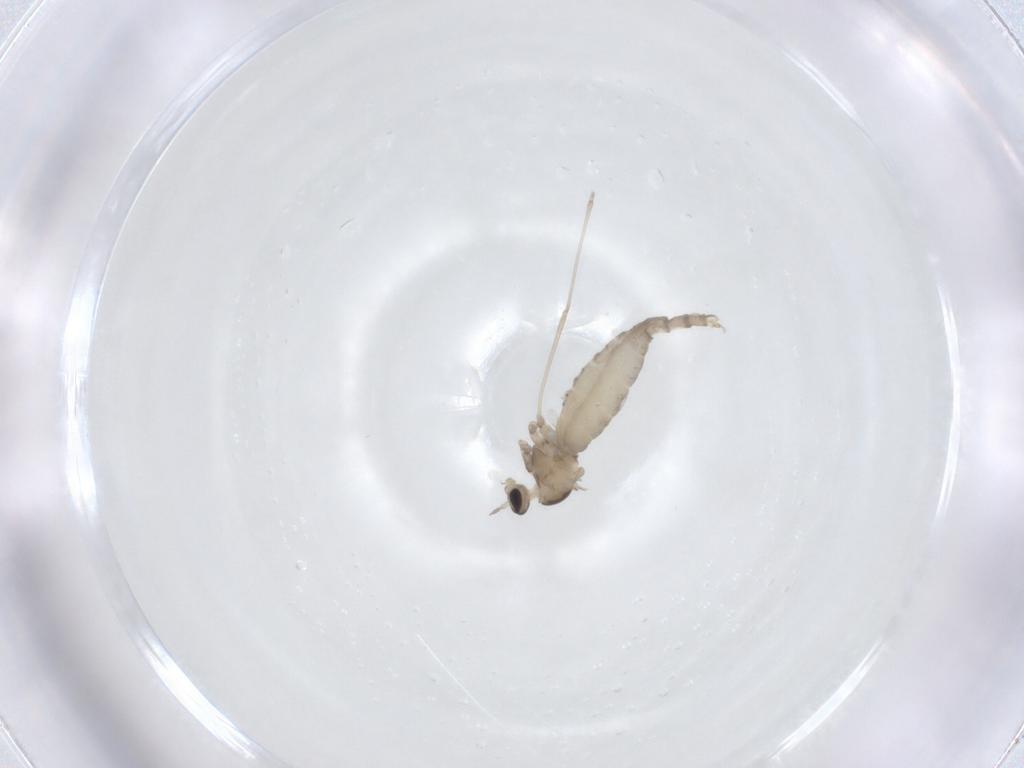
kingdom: Animalia
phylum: Arthropoda
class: Insecta
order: Diptera
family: Cecidomyiidae
